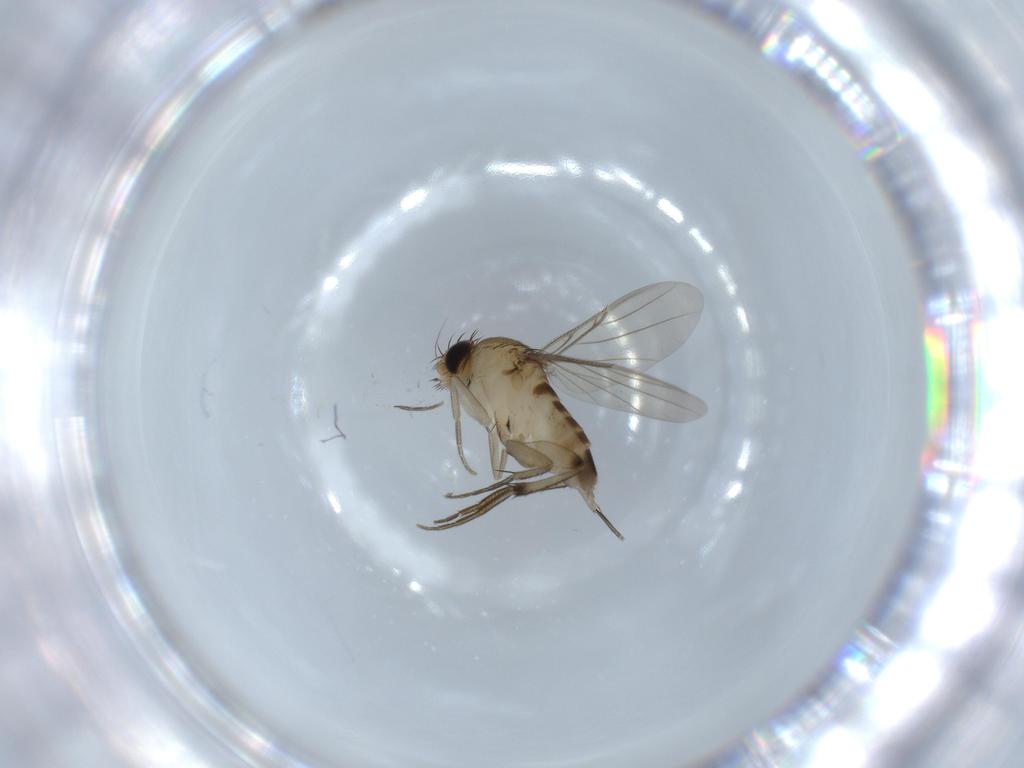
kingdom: Animalia
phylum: Arthropoda
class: Insecta
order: Diptera
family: Phoridae
